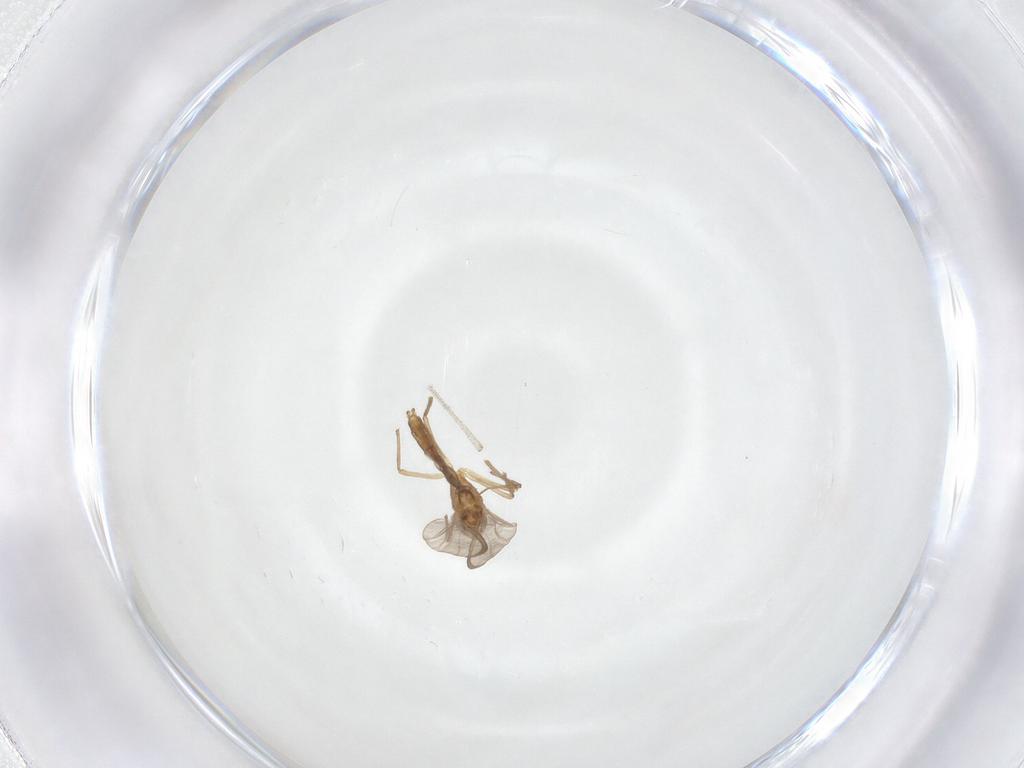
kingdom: Animalia
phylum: Arthropoda
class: Insecta
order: Diptera
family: Chironomidae
